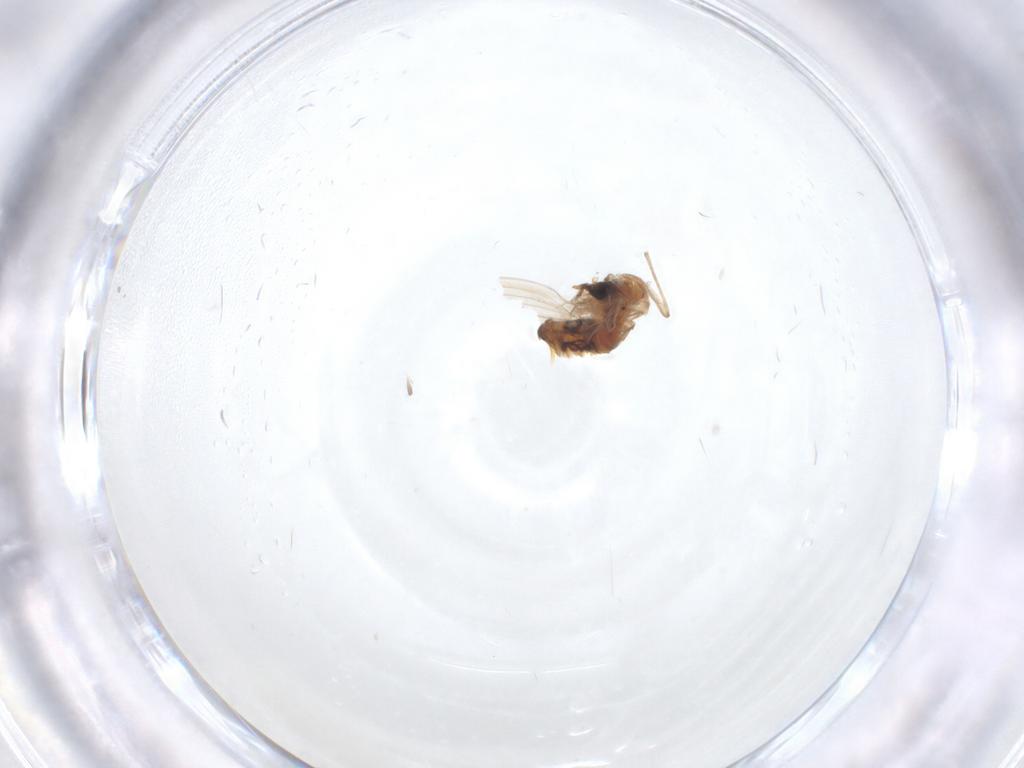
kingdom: Animalia
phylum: Arthropoda
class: Insecta
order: Diptera
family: Psychodidae
